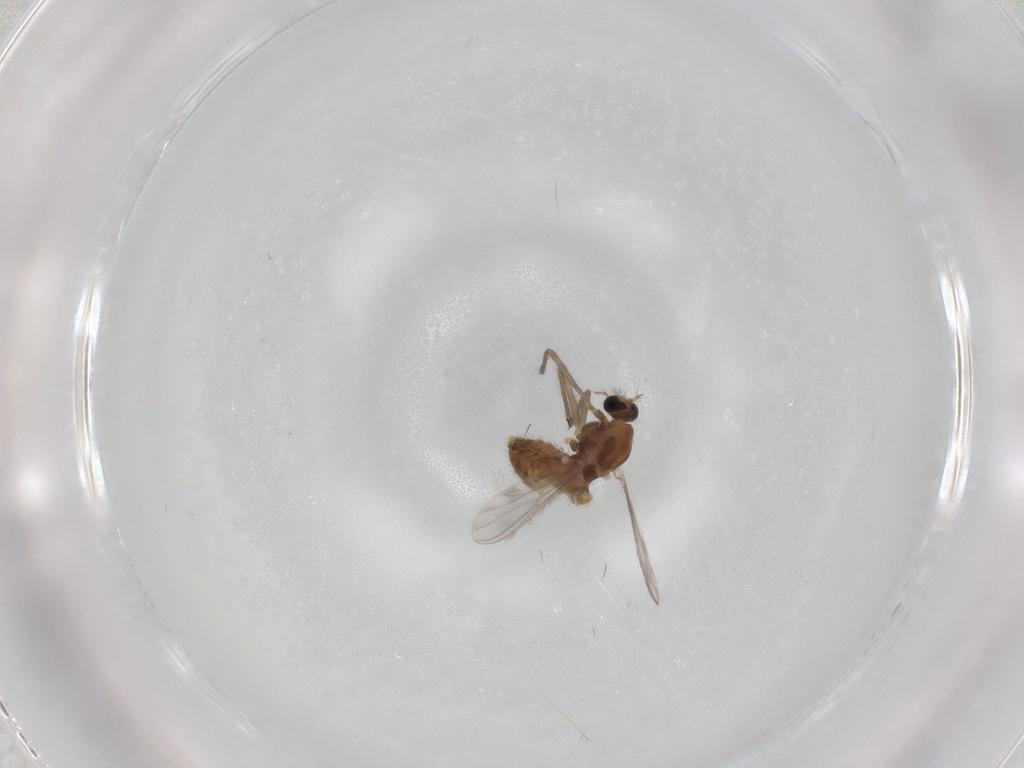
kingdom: Animalia
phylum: Arthropoda
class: Insecta
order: Diptera
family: Chironomidae
